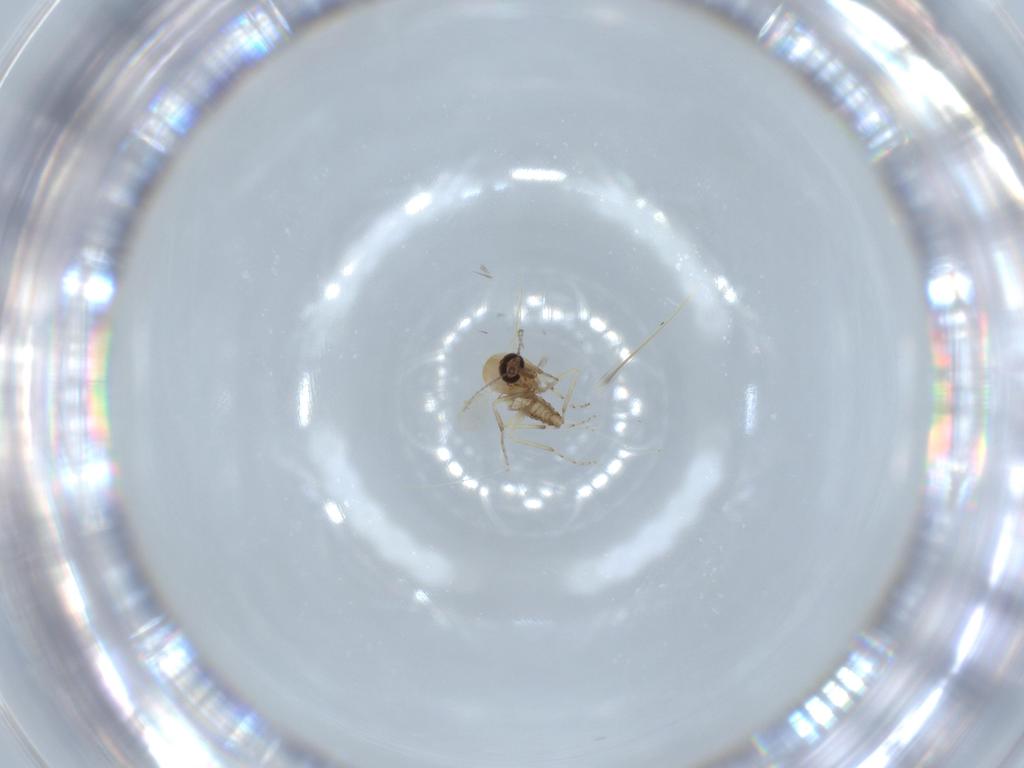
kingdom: Animalia
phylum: Arthropoda
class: Insecta
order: Diptera
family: Ceratopogonidae
